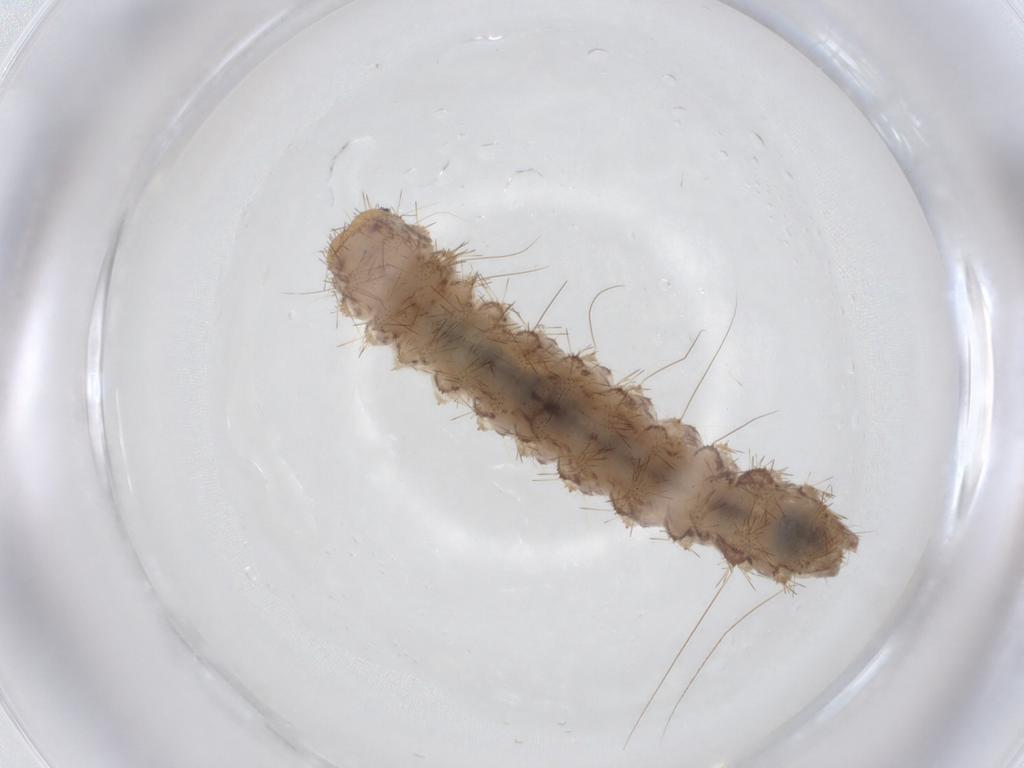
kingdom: Animalia
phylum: Arthropoda
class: Insecta
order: Lepidoptera
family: Erebidae
